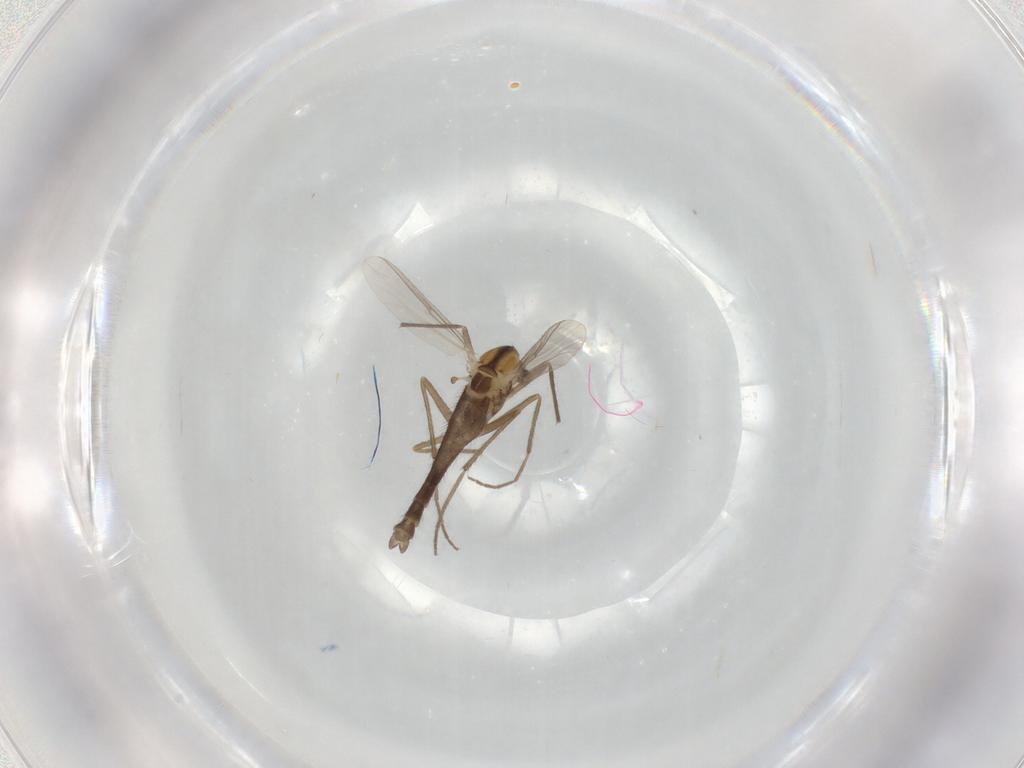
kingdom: Animalia
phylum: Arthropoda
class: Insecta
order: Diptera
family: Chironomidae
